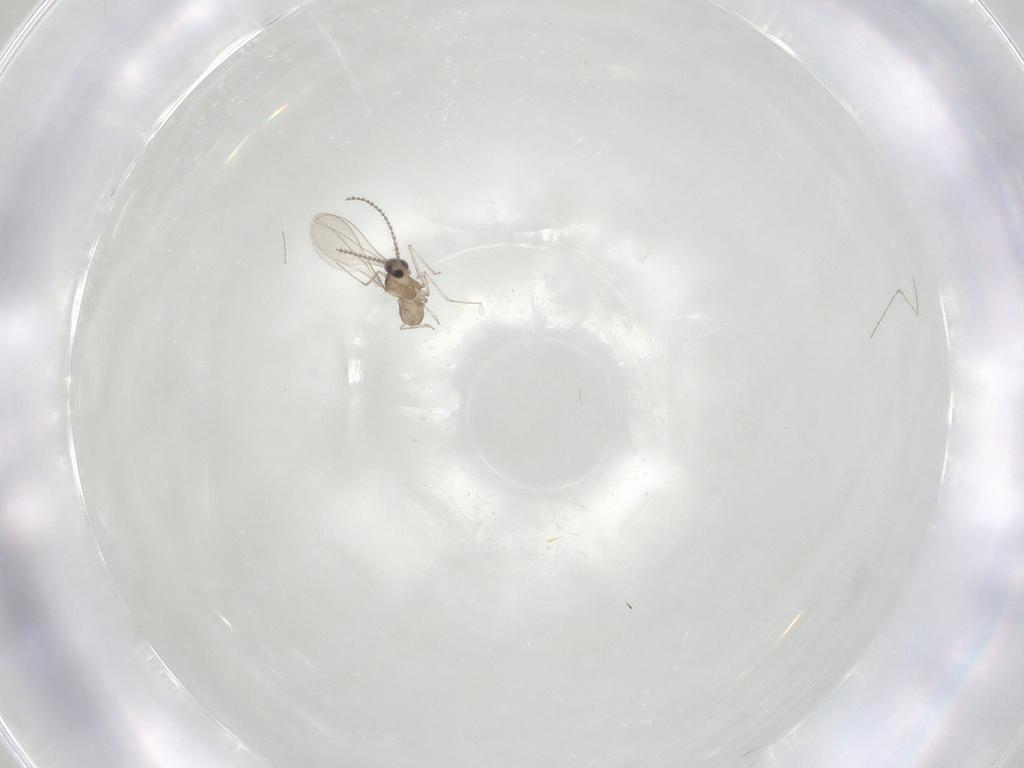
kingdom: Animalia
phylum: Arthropoda
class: Insecta
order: Diptera
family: Cecidomyiidae
